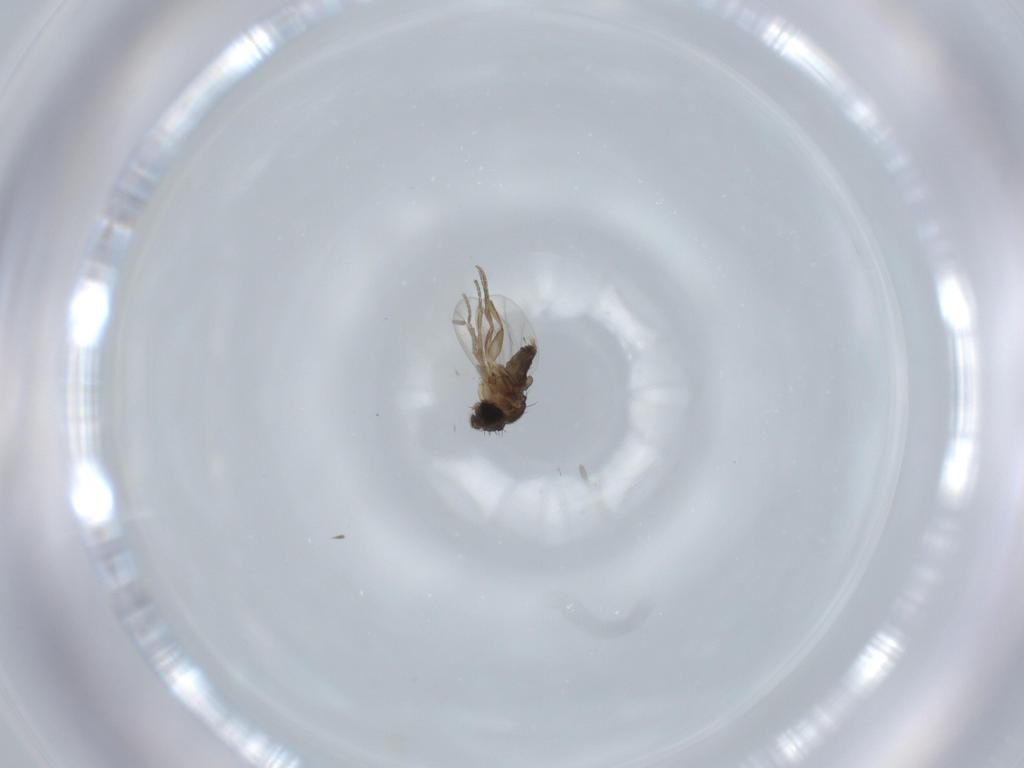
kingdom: Animalia
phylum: Arthropoda
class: Insecta
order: Diptera
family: Mycetophilidae
